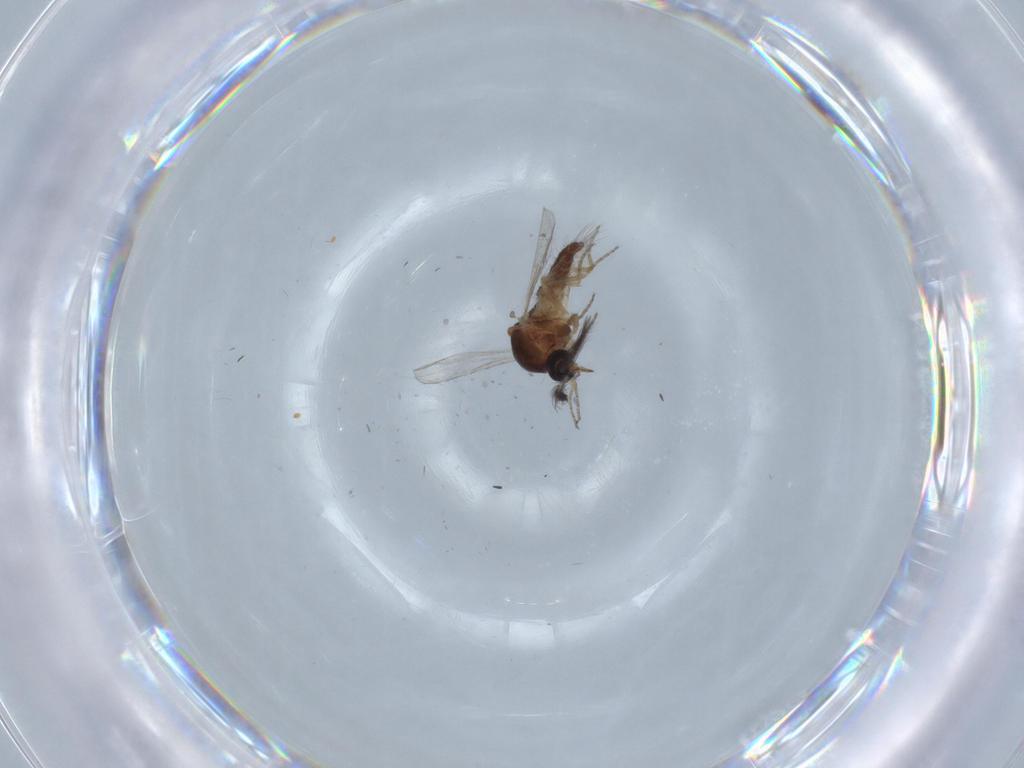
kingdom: Animalia
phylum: Arthropoda
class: Insecta
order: Diptera
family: Ceratopogonidae
